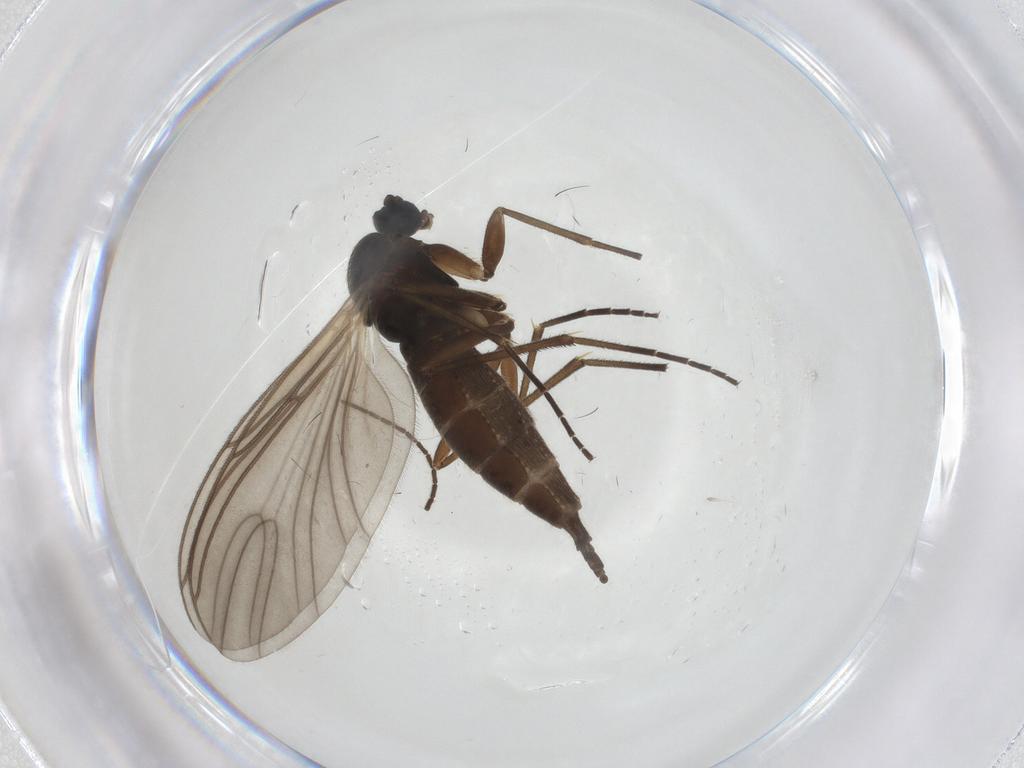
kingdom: Animalia
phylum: Arthropoda
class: Insecta
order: Diptera
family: Sciaridae
